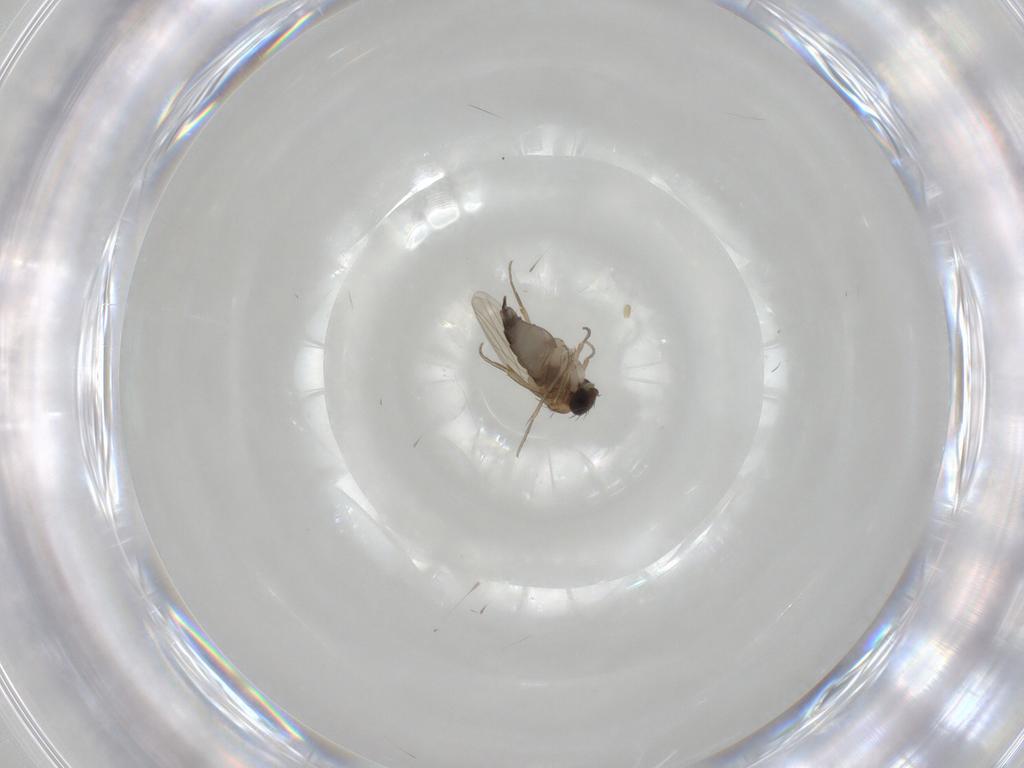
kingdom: Animalia
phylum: Arthropoda
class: Insecta
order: Diptera
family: Phoridae
